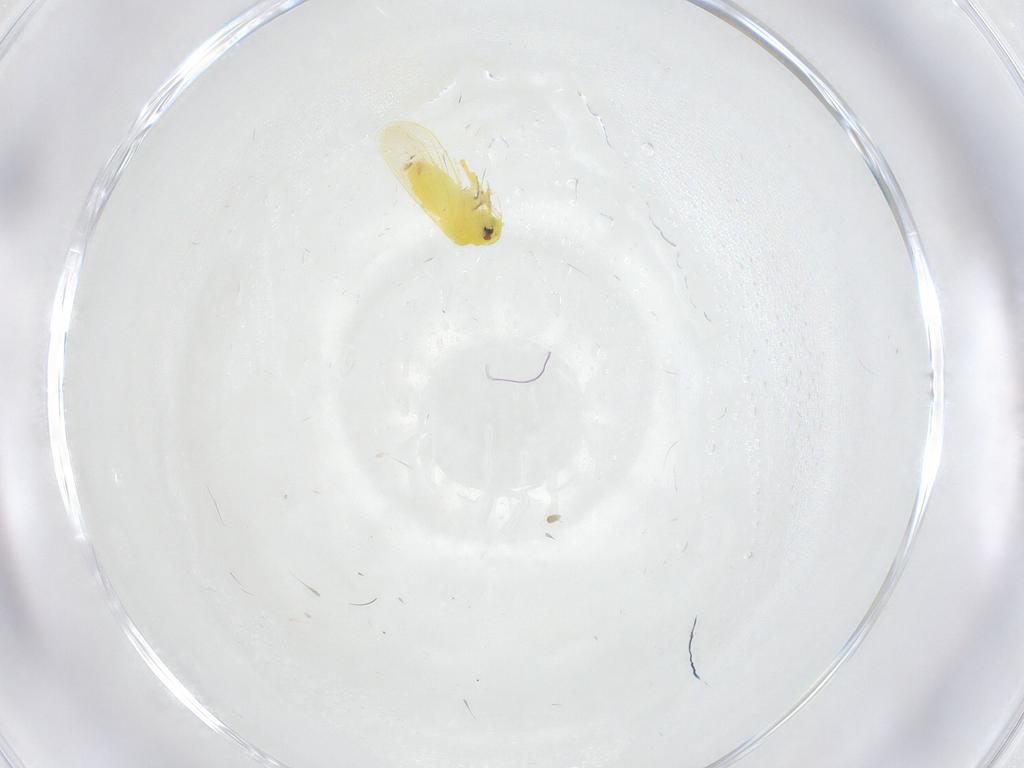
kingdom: Animalia
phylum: Arthropoda
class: Insecta
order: Hemiptera
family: Aleyrodidae
